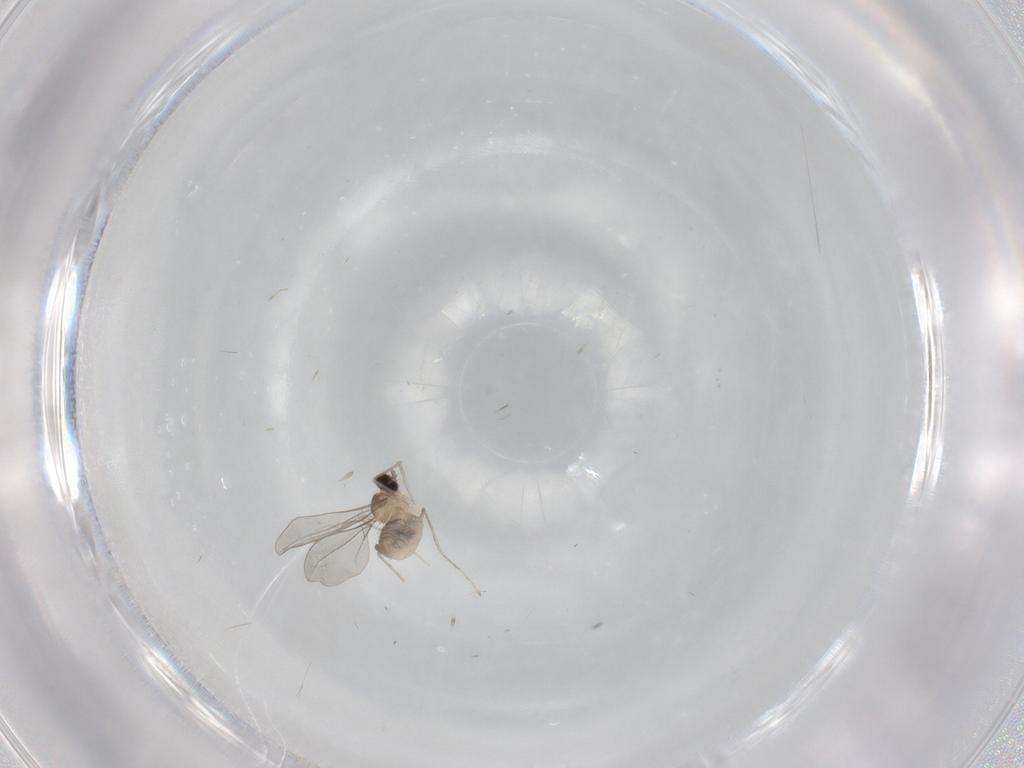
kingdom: Animalia
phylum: Arthropoda
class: Insecta
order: Diptera
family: Cecidomyiidae
